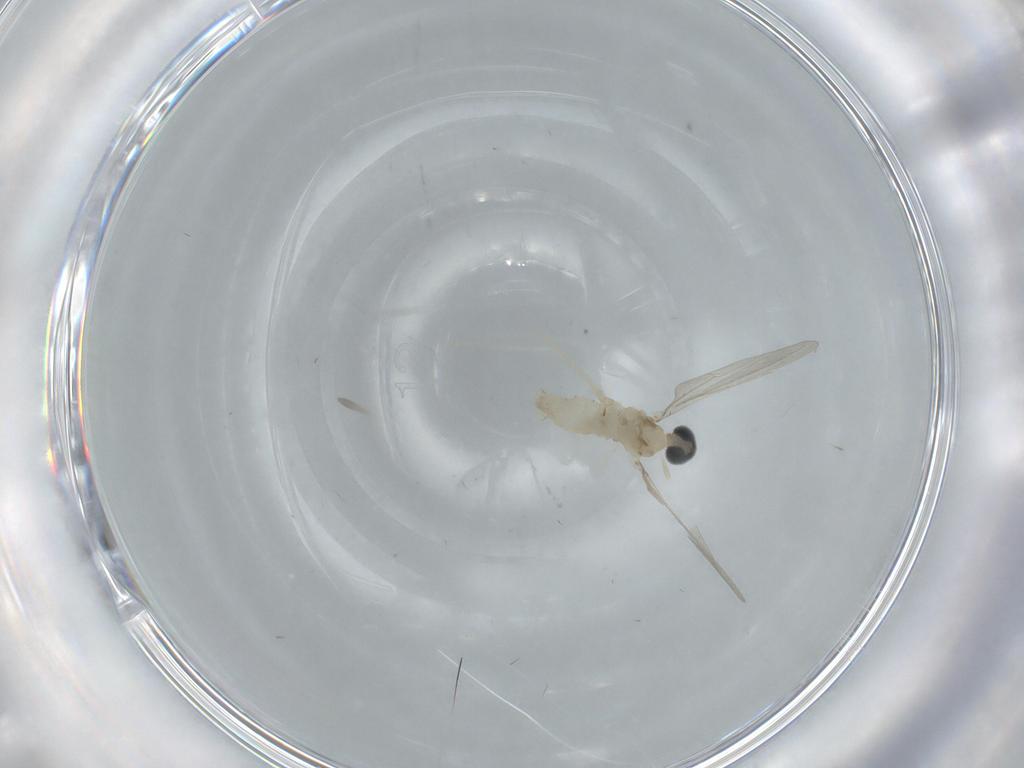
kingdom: Animalia
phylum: Arthropoda
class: Insecta
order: Diptera
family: Cecidomyiidae
